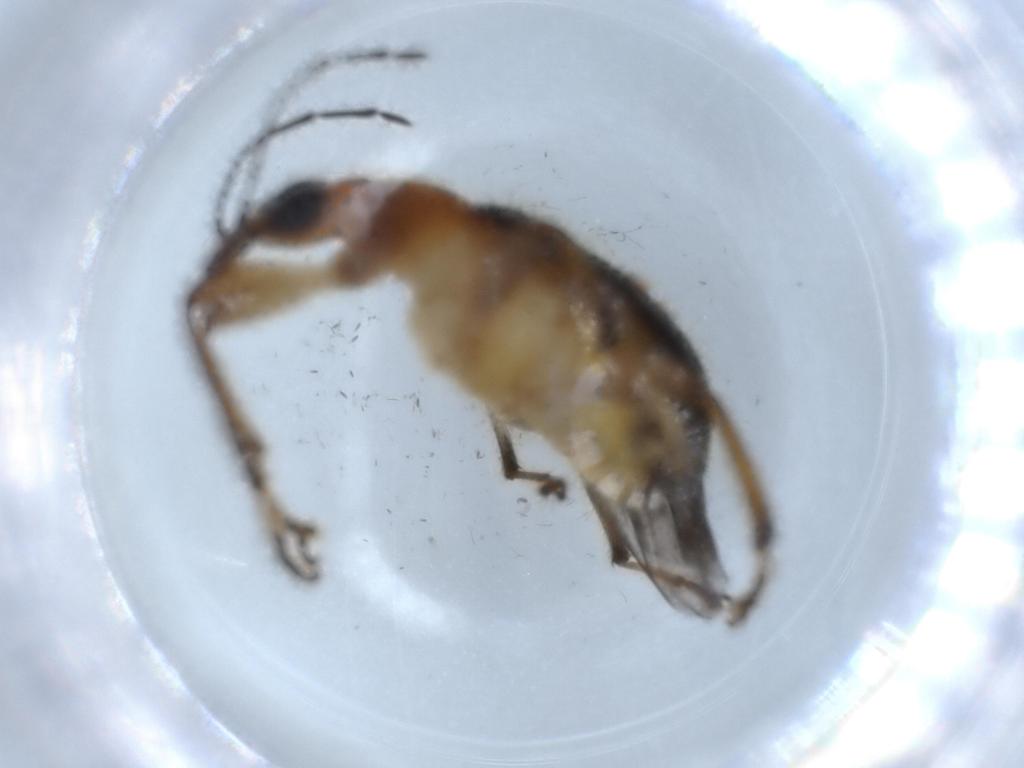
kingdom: Animalia
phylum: Arthropoda
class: Insecta
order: Coleoptera
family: Attelabidae
